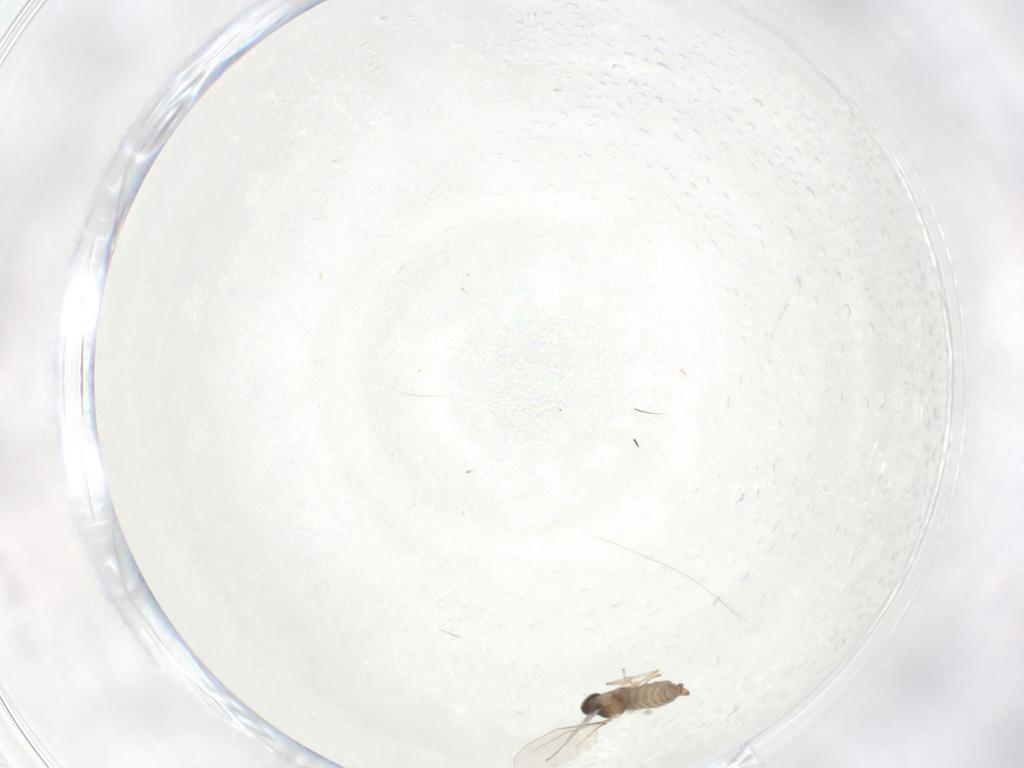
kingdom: Animalia
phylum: Arthropoda
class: Insecta
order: Diptera
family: Cecidomyiidae
